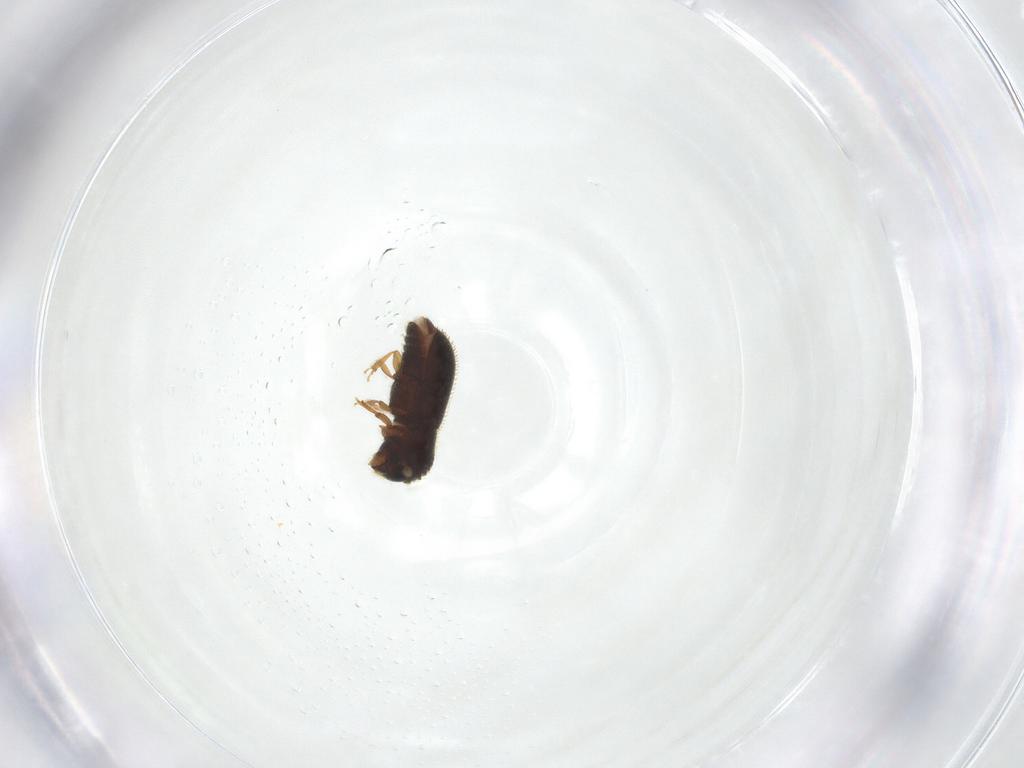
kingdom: Animalia
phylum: Arthropoda
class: Insecta
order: Coleoptera
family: Curculionidae
